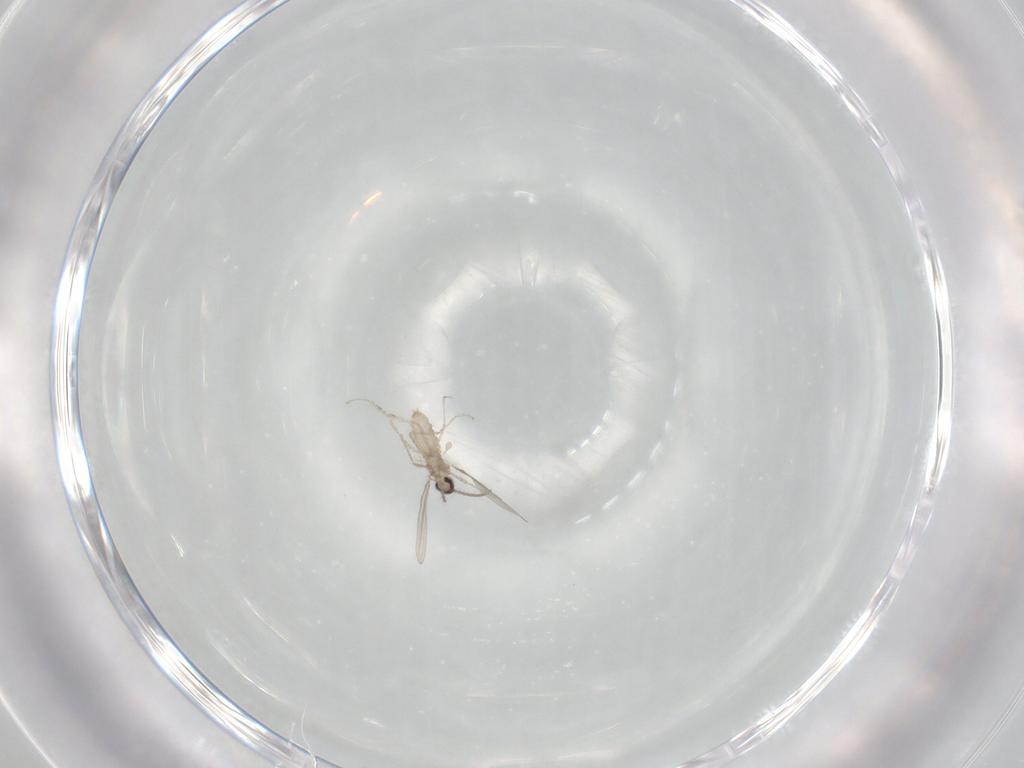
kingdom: Animalia
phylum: Arthropoda
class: Insecta
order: Diptera
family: Cecidomyiidae
